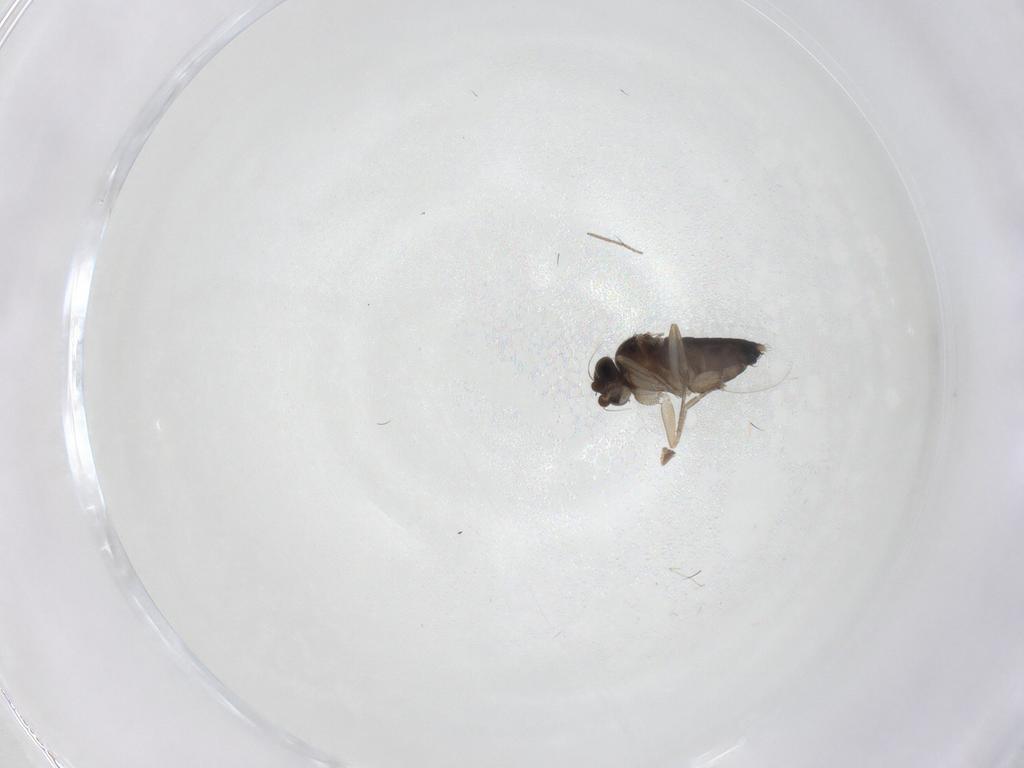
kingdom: Animalia
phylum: Arthropoda
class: Insecta
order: Diptera
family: Phoridae
